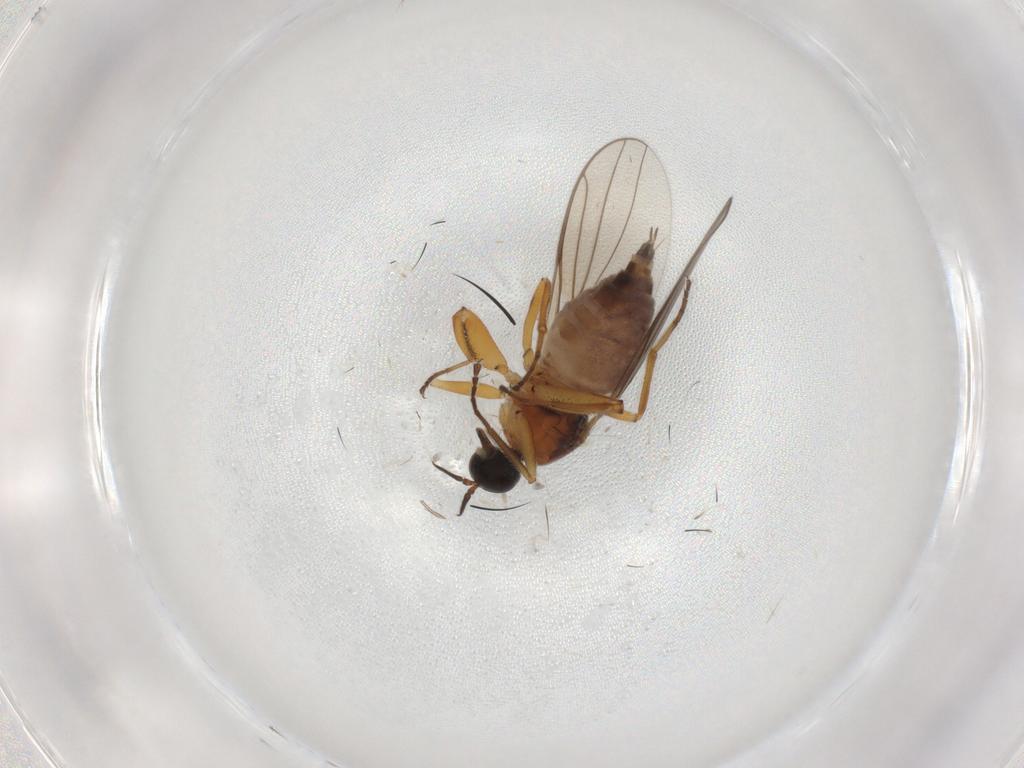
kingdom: Animalia
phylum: Arthropoda
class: Insecta
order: Diptera
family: Hybotidae
